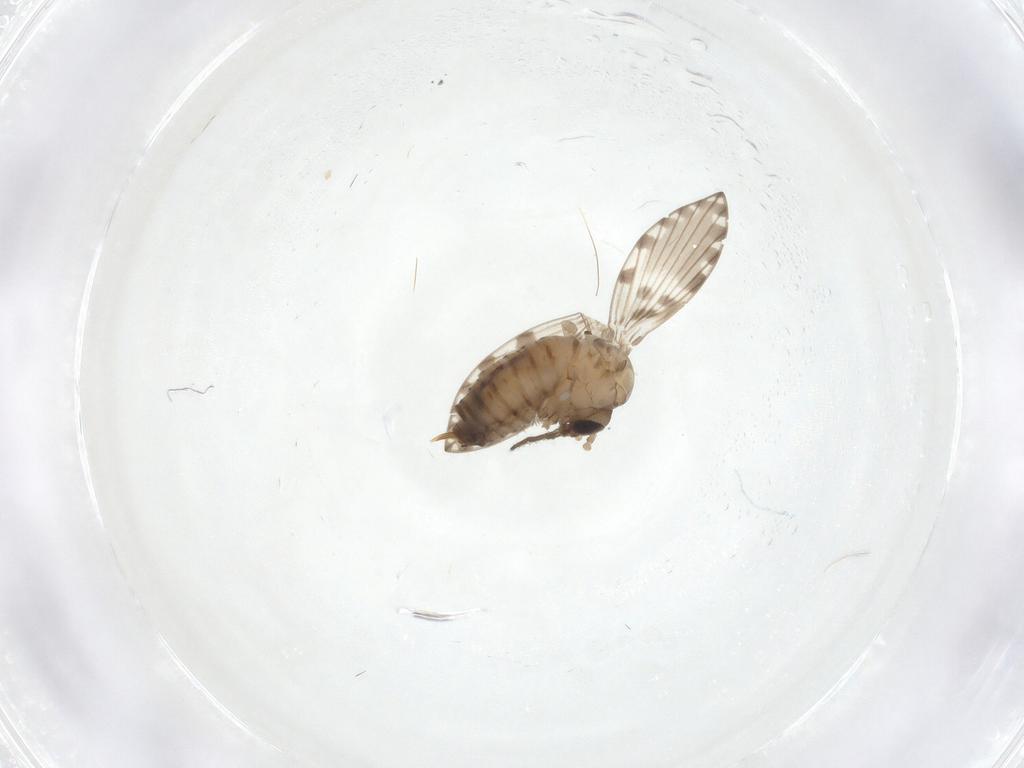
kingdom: Animalia
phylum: Arthropoda
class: Insecta
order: Diptera
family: Psychodidae
